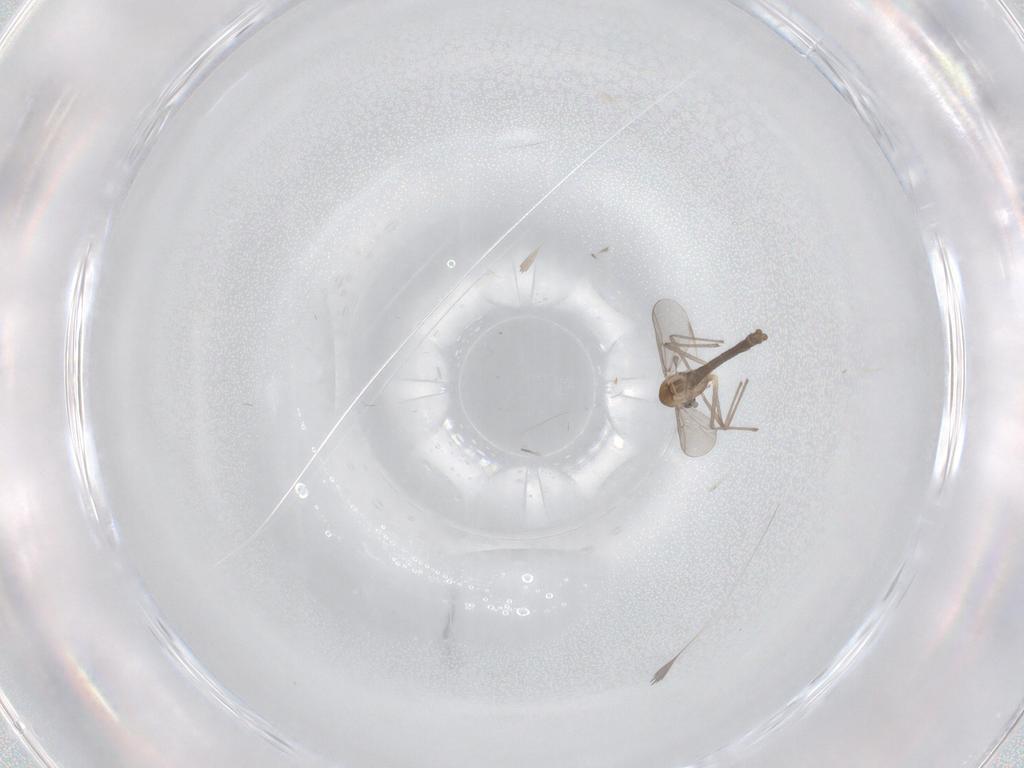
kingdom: Animalia
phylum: Arthropoda
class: Insecta
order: Diptera
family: Chironomidae
